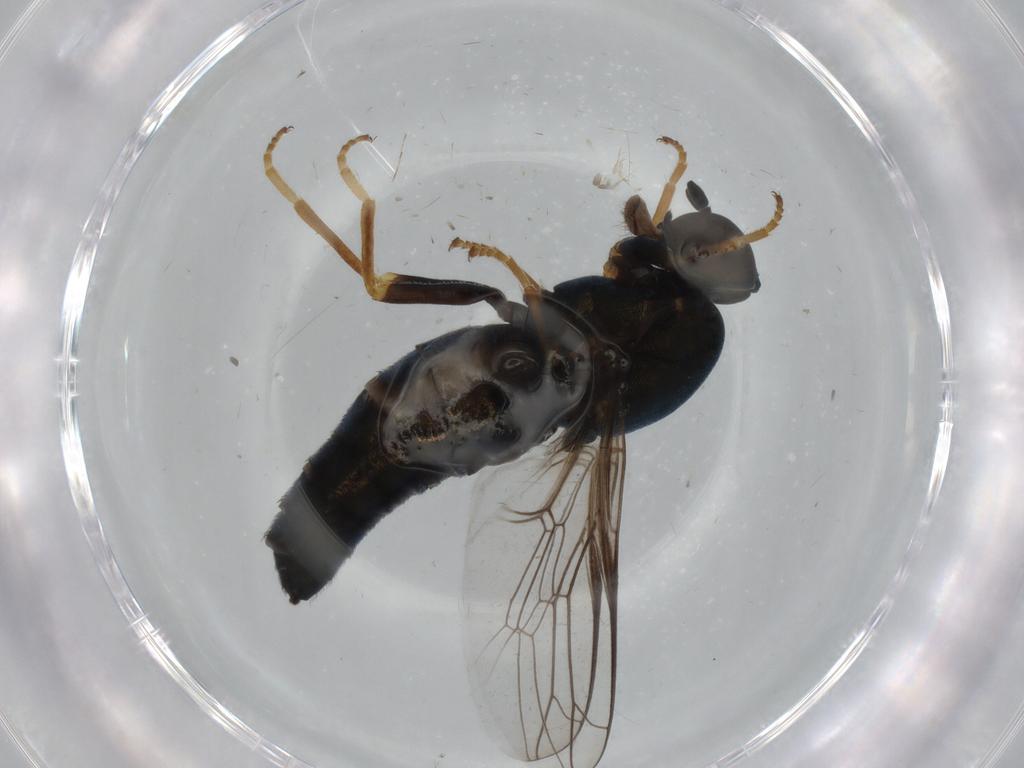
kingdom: Animalia
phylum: Arthropoda
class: Insecta
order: Diptera
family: Scenopinidae
